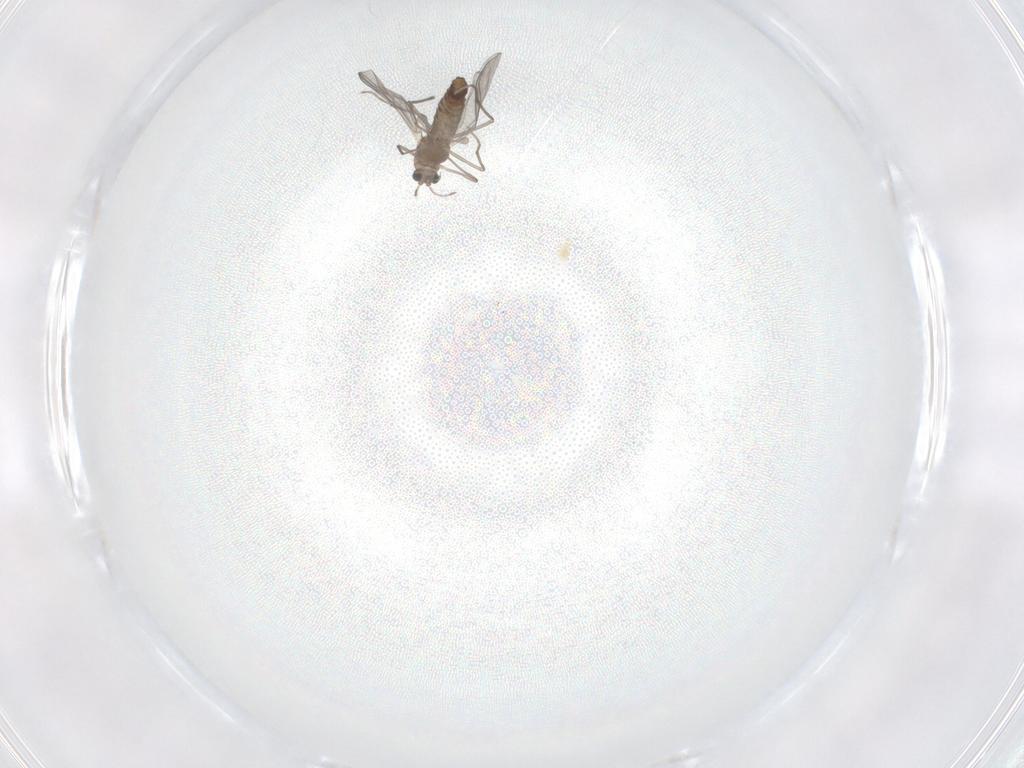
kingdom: Animalia
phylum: Arthropoda
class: Insecta
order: Diptera
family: Chironomidae
